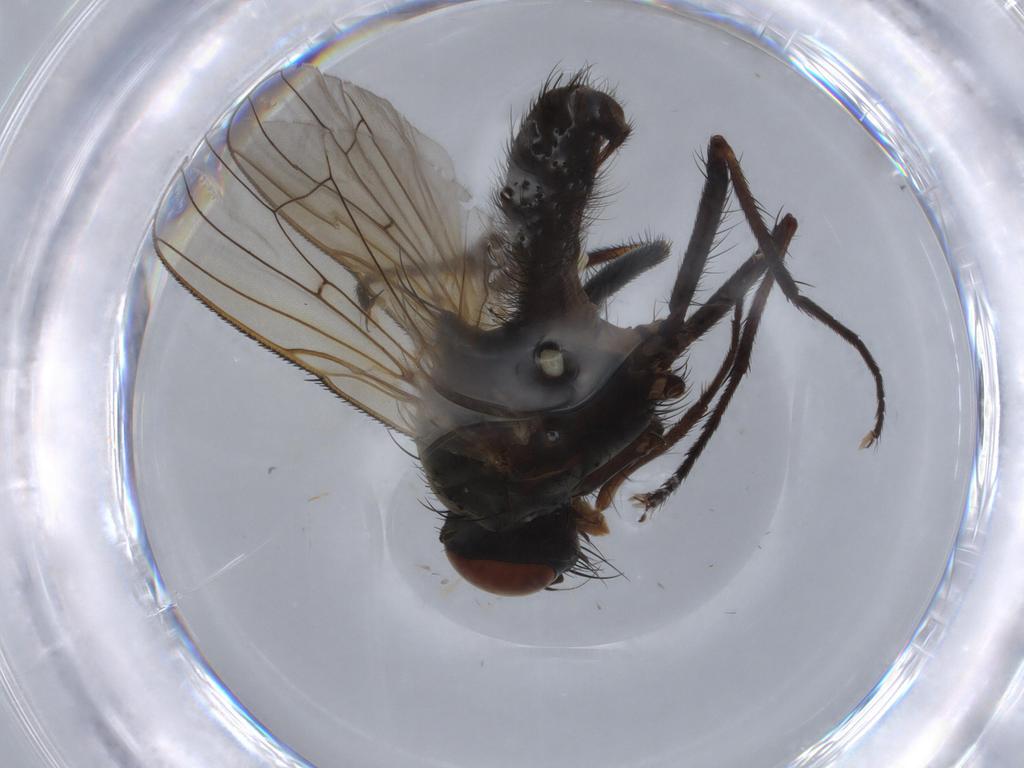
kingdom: Animalia
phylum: Arthropoda
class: Insecta
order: Diptera
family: Anthomyiidae
